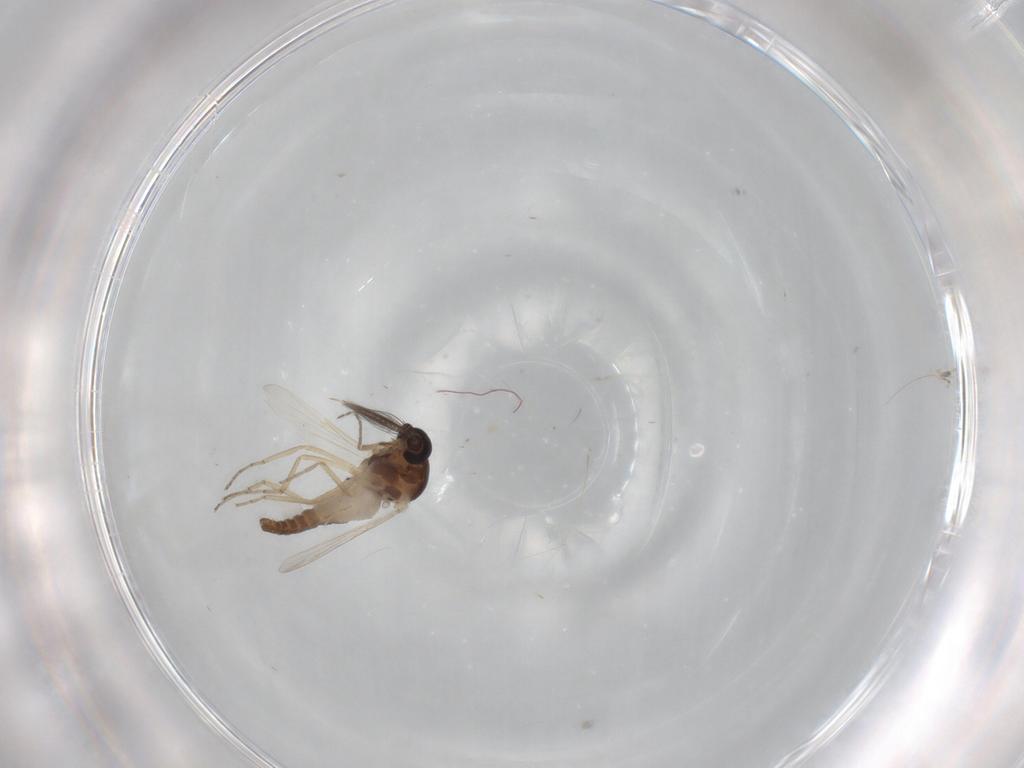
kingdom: Animalia
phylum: Arthropoda
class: Insecta
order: Diptera
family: Ceratopogonidae
